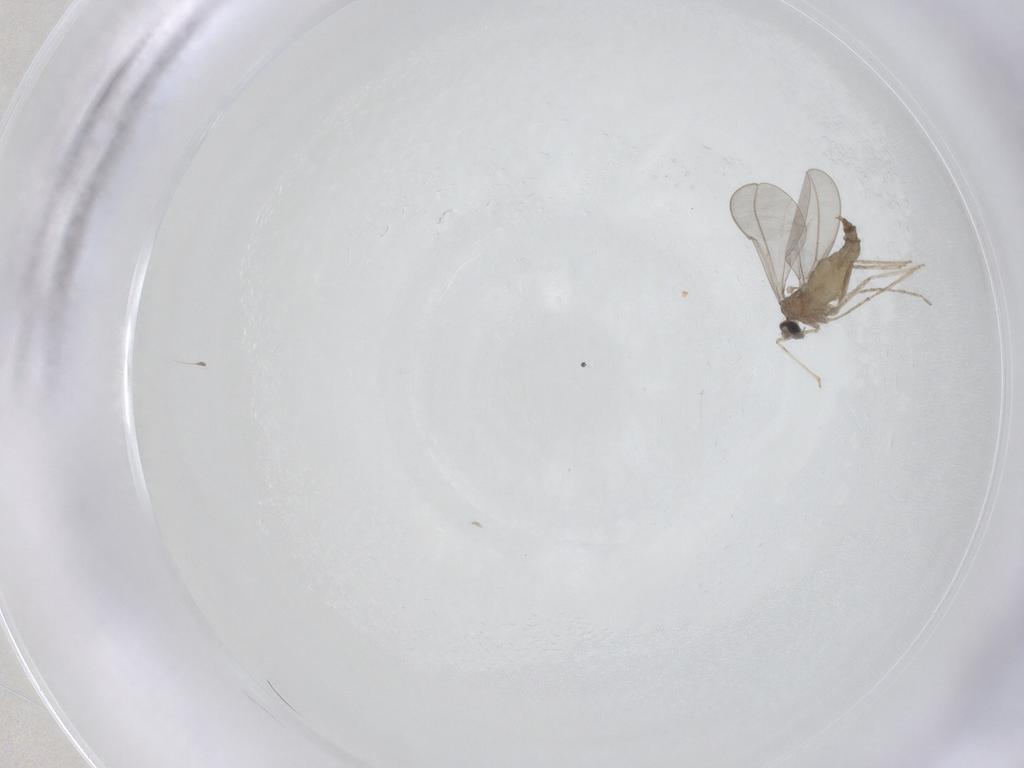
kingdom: Animalia
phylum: Arthropoda
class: Insecta
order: Diptera
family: Cecidomyiidae
